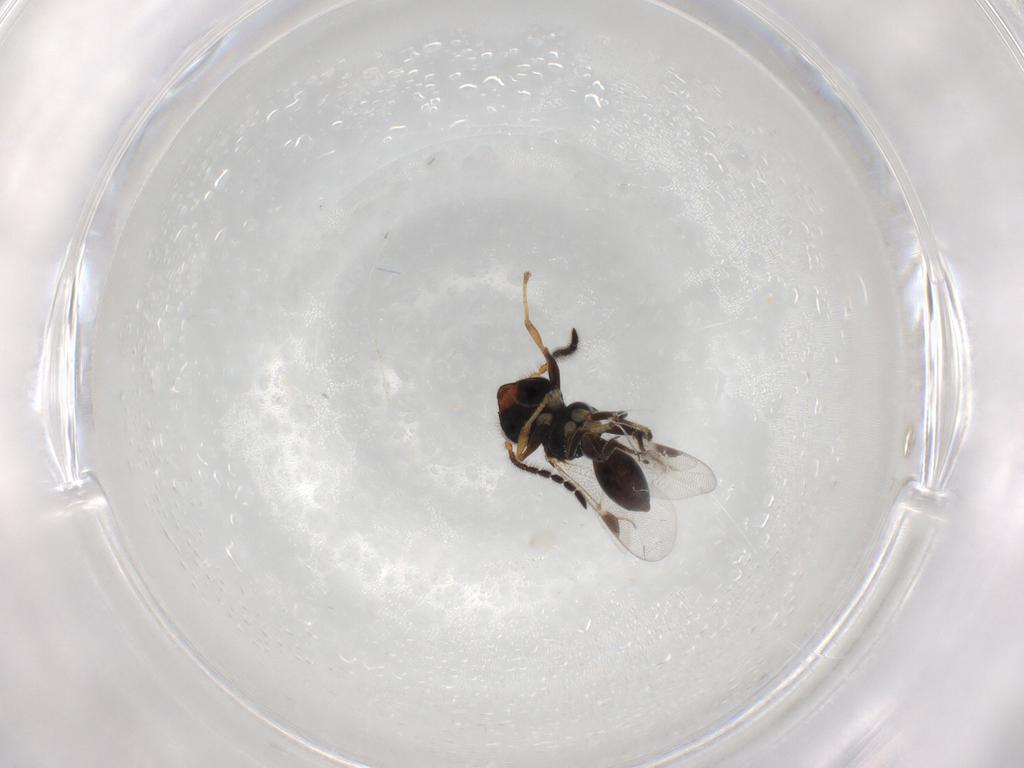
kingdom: Animalia
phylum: Arthropoda
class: Insecta
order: Hymenoptera
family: Dryinidae
